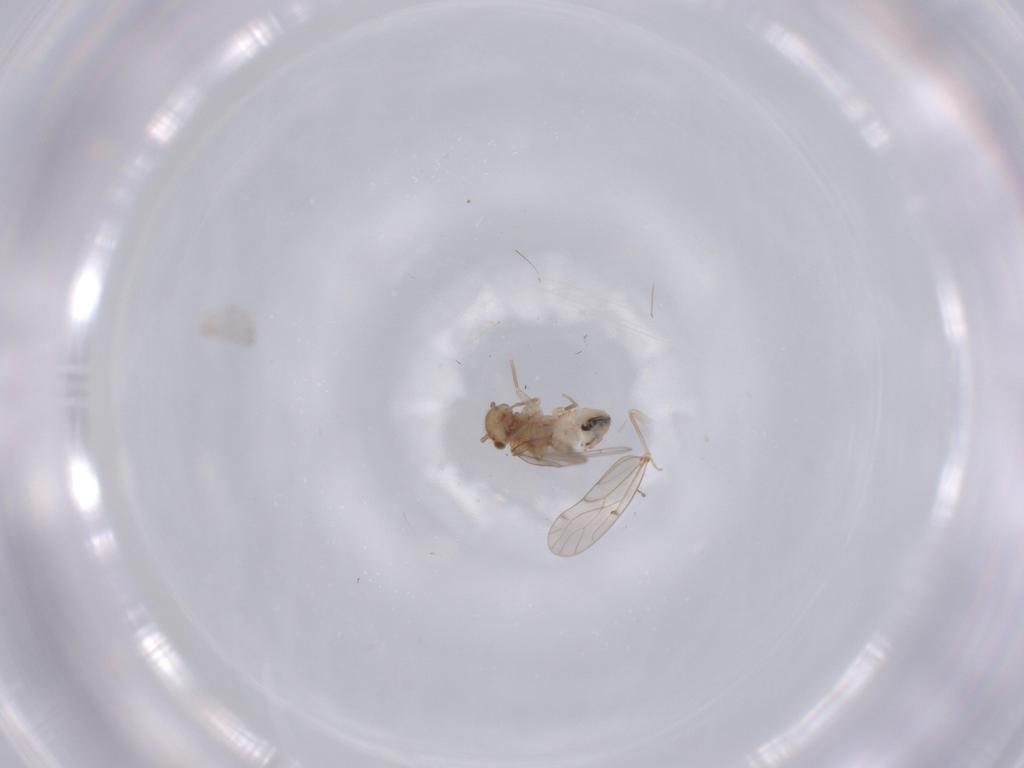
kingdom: Animalia
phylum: Arthropoda
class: Insecta
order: Psocodea
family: Ectopsocidae
